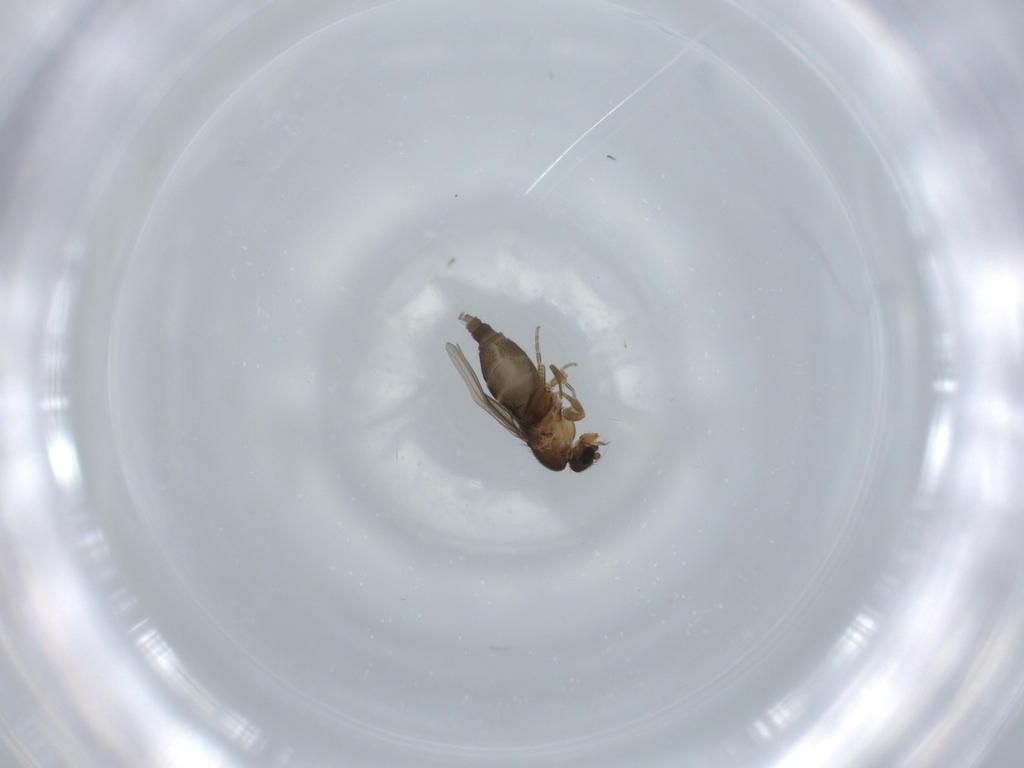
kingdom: Animalia
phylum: Arthropoda
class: Insecta
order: Diptera
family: Phoridae
